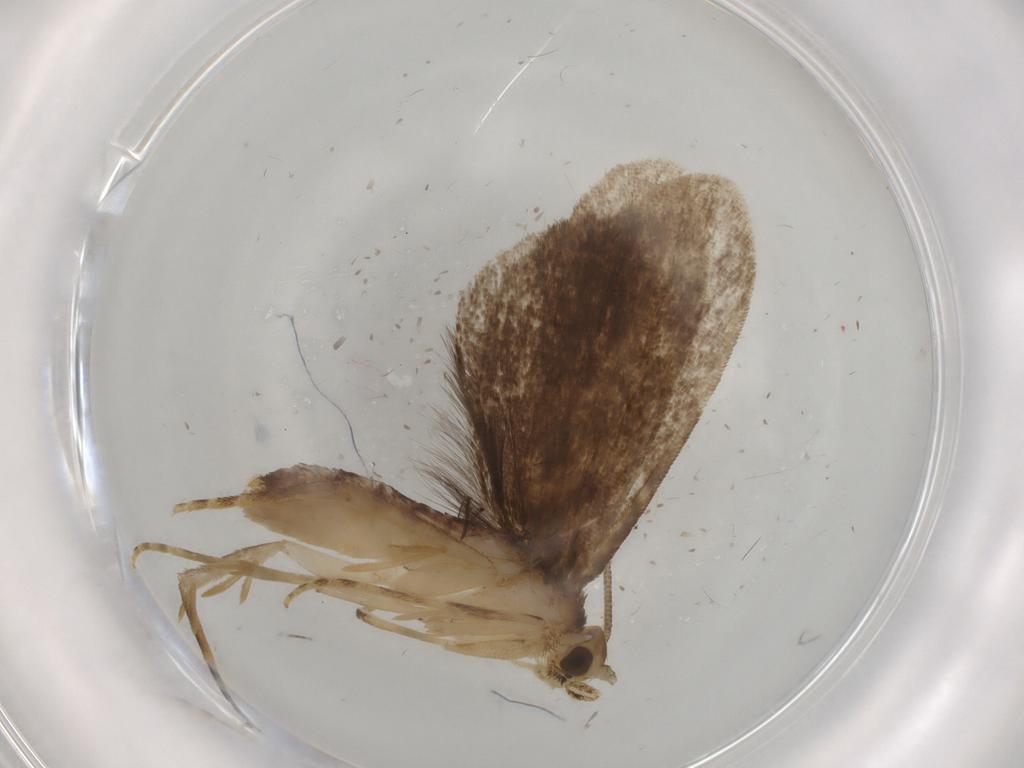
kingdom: Animalia
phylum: Arthropoda
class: Insecta
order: Lepidoptera
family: Dryadaulidae
